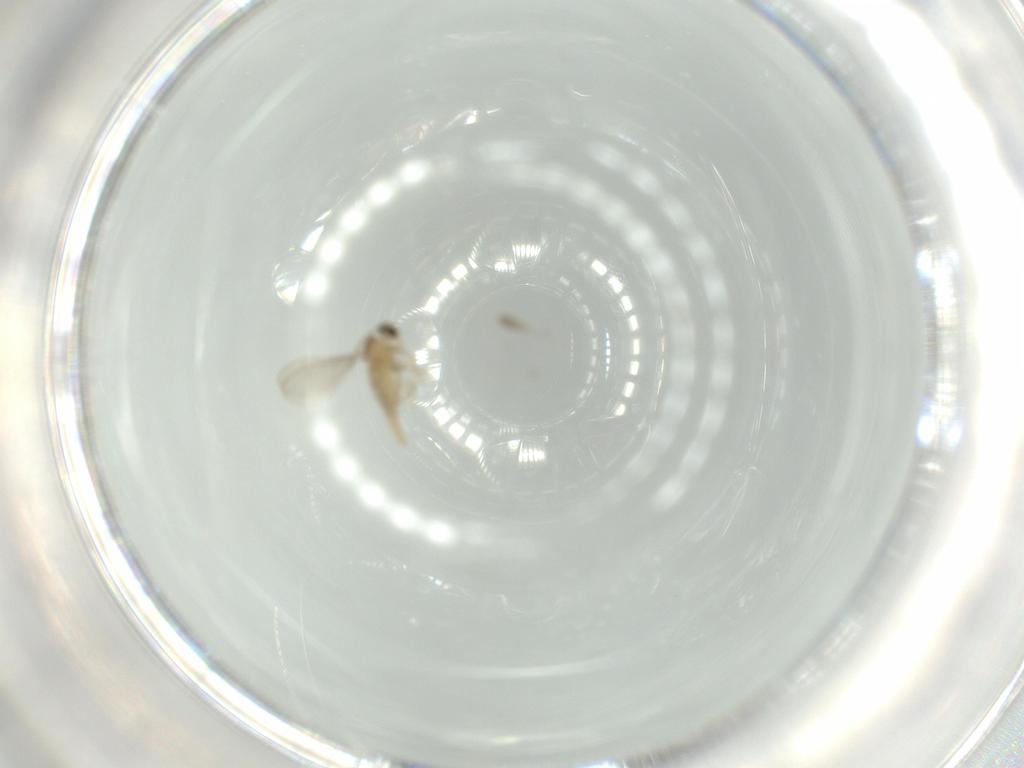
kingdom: Animalia
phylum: Arthropoda
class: Insecta
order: Diptera
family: Cecidomyiidae
